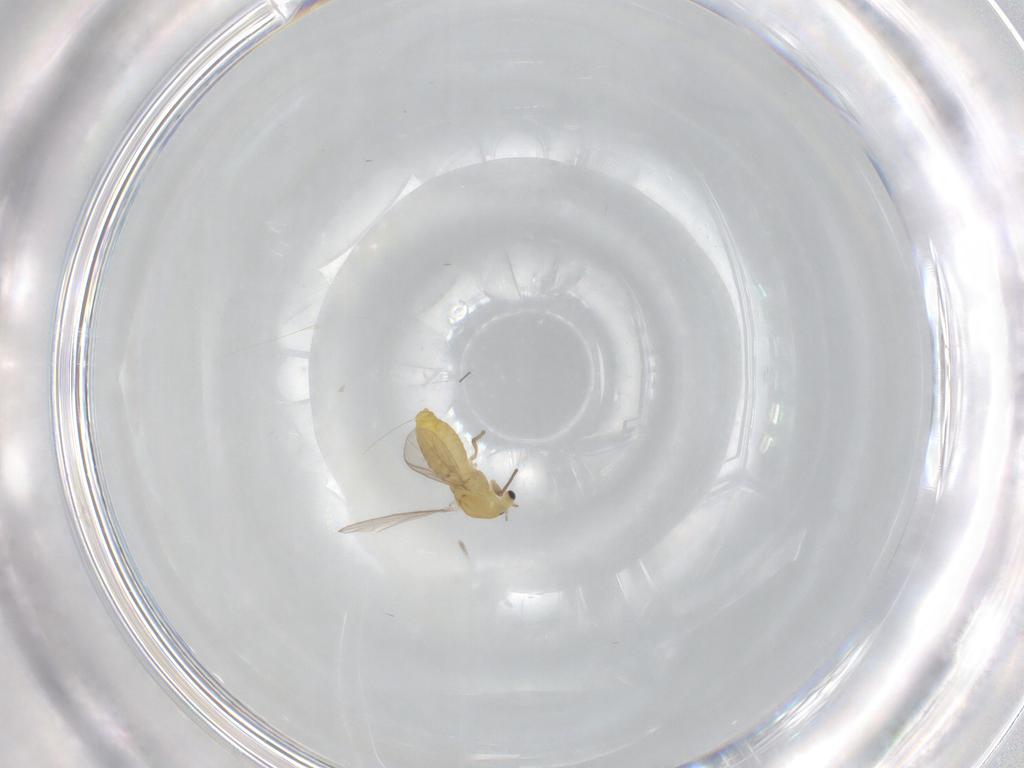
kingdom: Animalia
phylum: Arthropoda
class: Insecta
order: Diptera
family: Chironomidae
